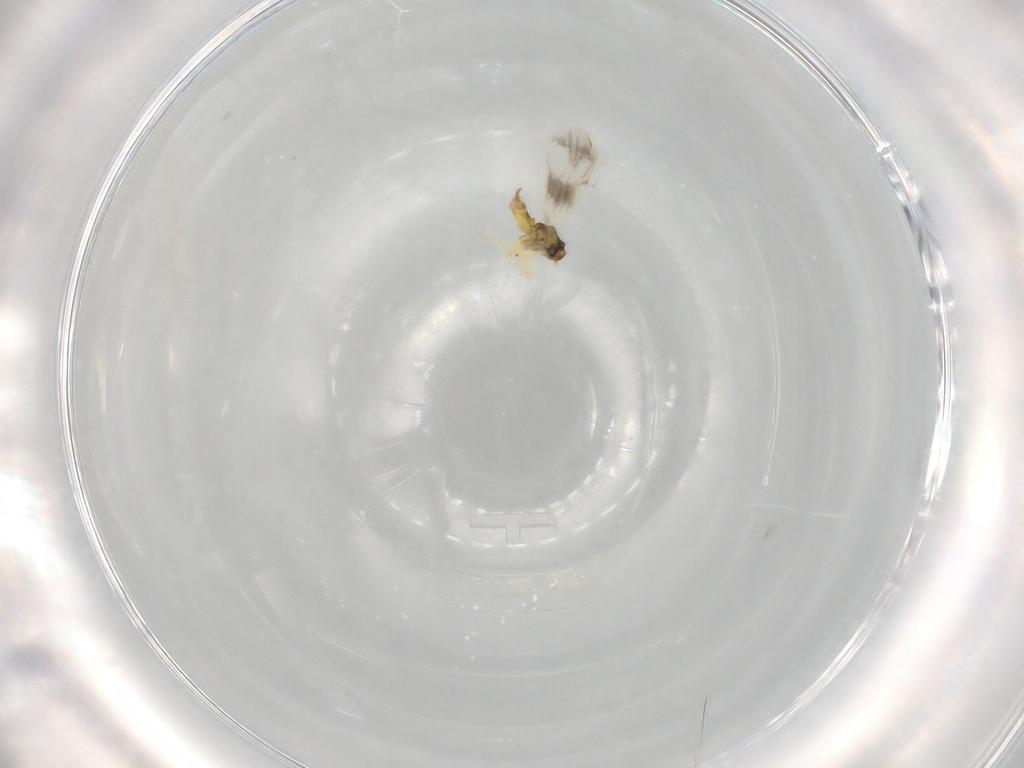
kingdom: Animalia
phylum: Arthropoda
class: Insecta
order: Hemiptera
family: Aleyrodidae
